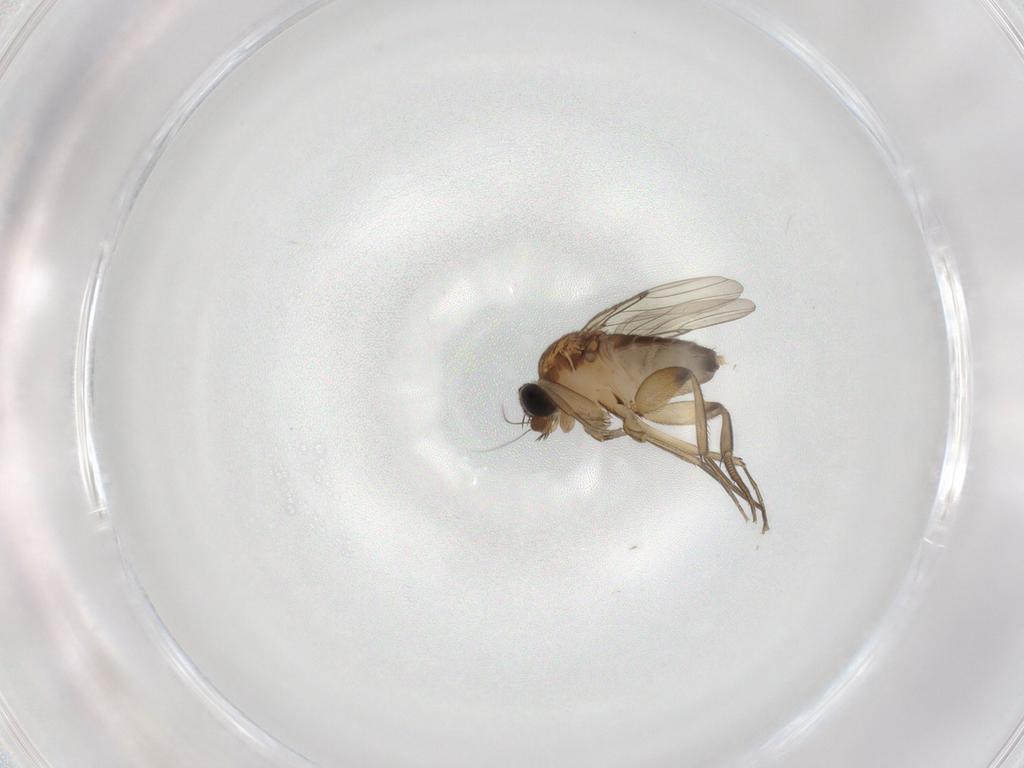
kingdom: Animalia
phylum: Arthropoda
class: Insecta
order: Diptera
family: Phoridae
